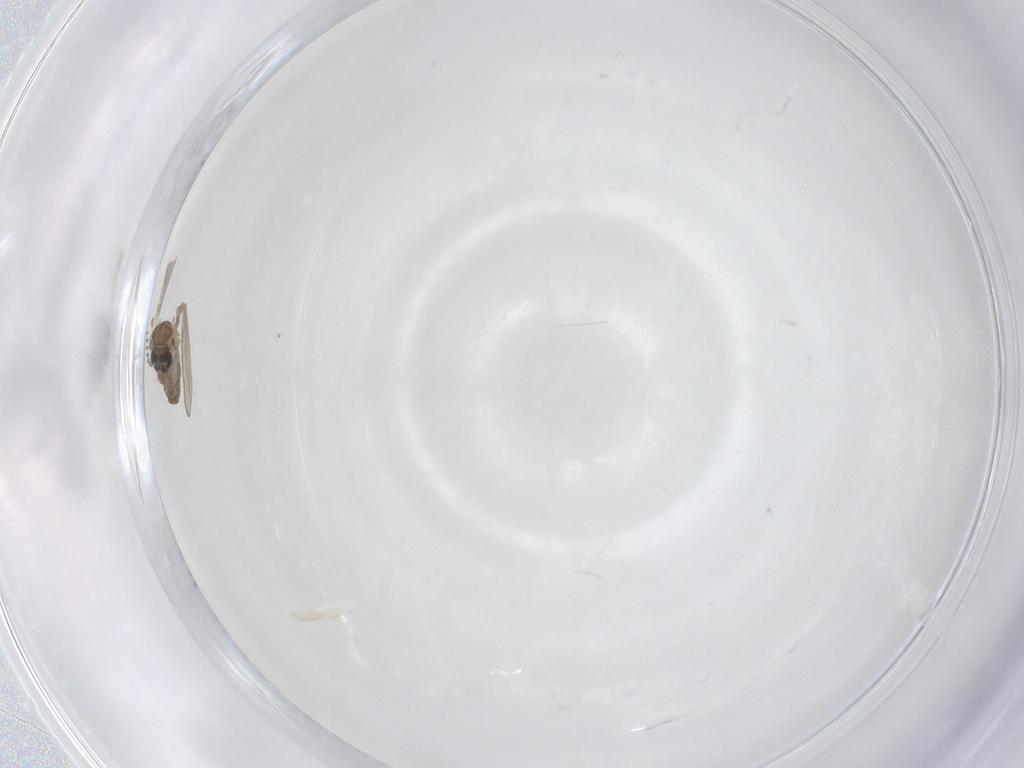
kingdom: Animalia
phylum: Arthropoda
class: Insecta
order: Diptera
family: Psychodidae
